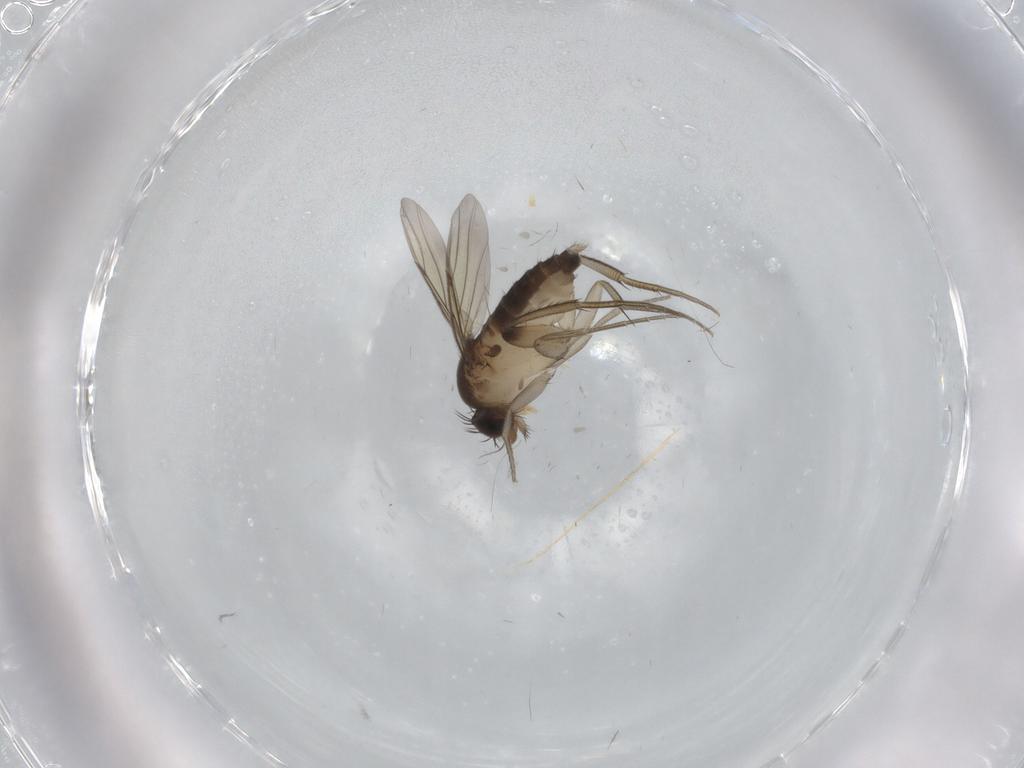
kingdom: Animalia
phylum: Arthropoda
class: Insecta
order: Diptera
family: Phoridae
